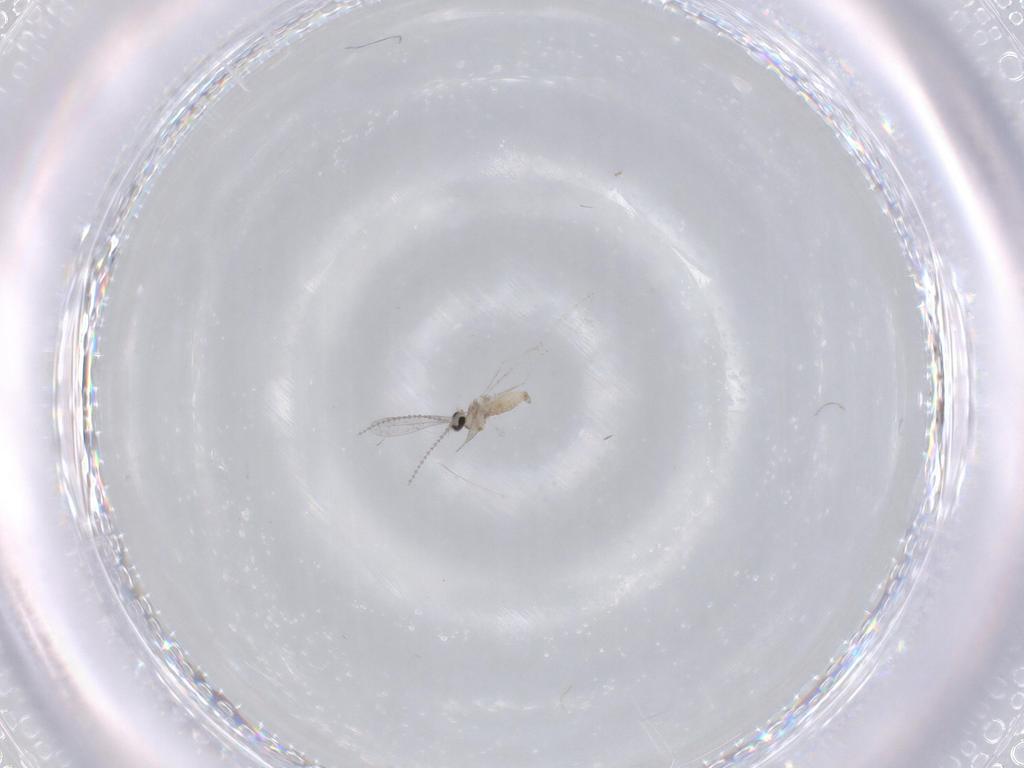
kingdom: Animalia
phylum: Arthropoda
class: Insecta
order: Diptera
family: Cecidomyiidae
